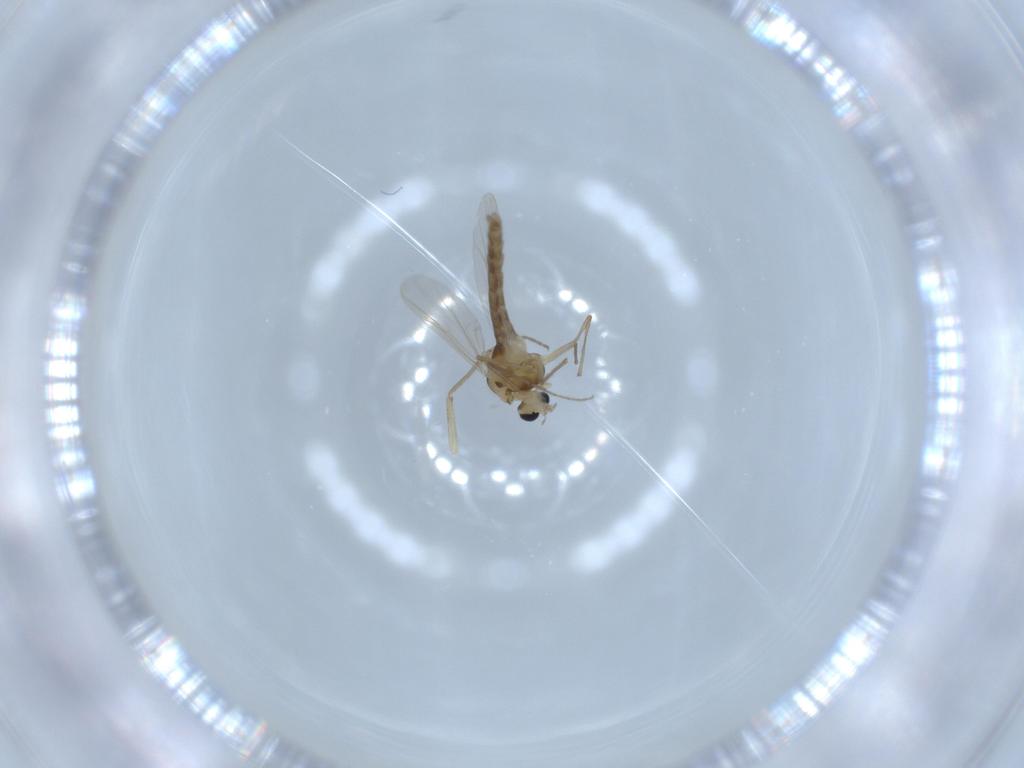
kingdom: Animalia
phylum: Arthropoda
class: Insecta
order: Diptera
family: Chironomidae
